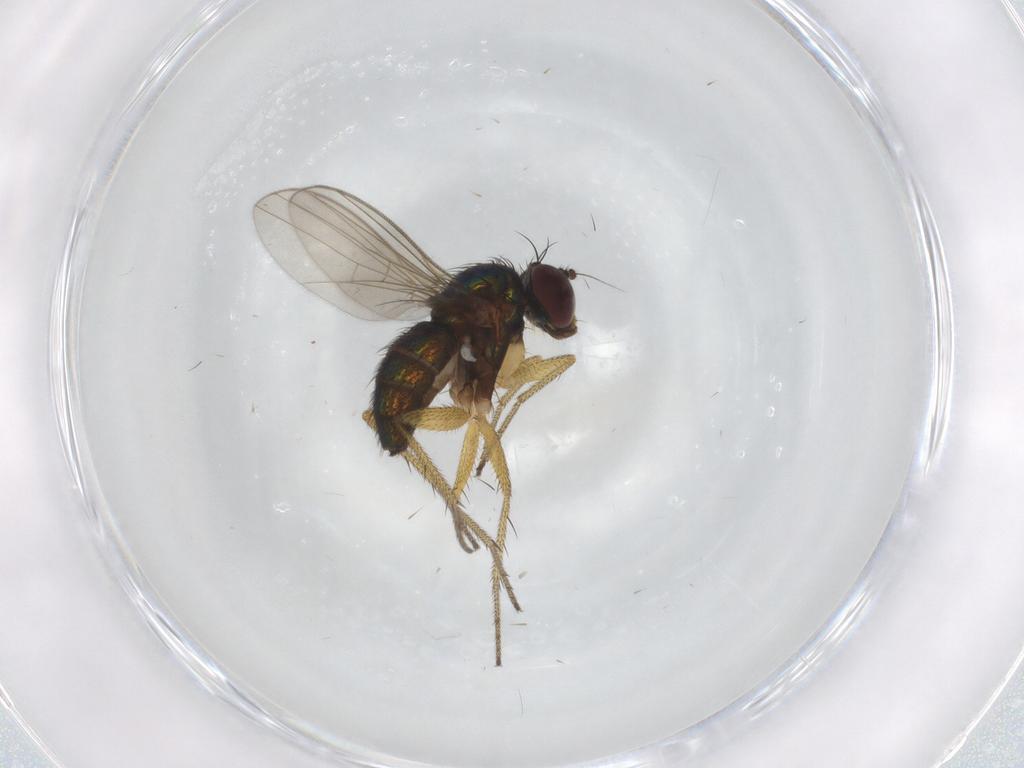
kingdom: Animalia
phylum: Arthropoda
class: Insecta
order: Diptera
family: Dolichopodidae
